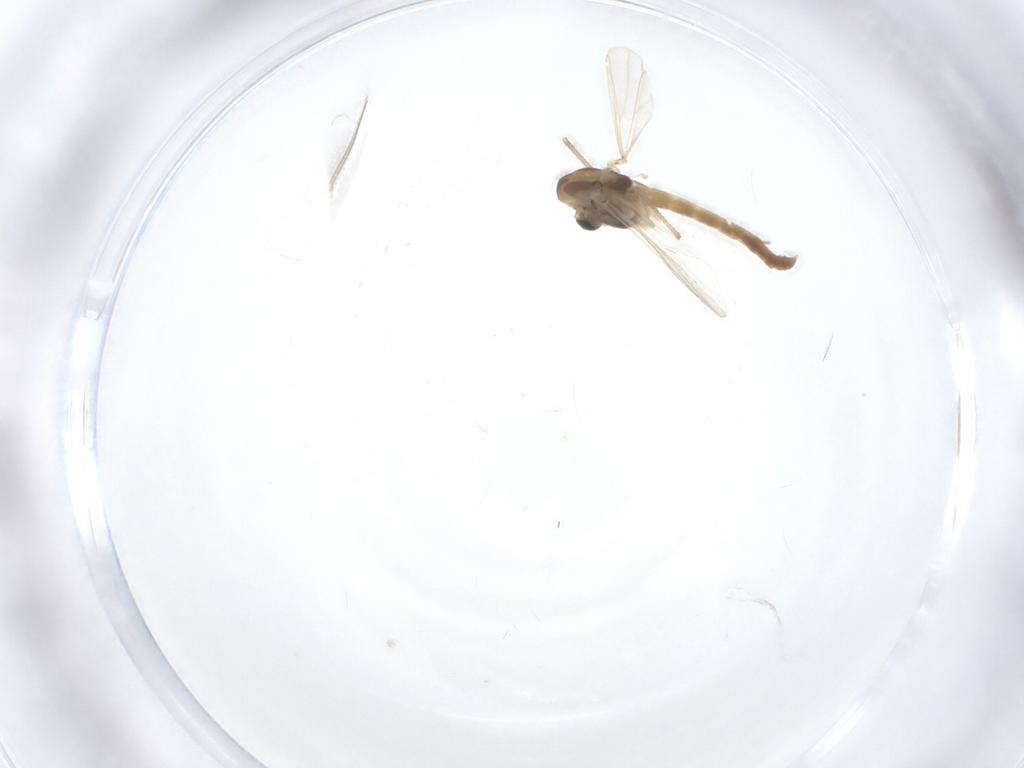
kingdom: Animalia
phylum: Arthropoda
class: Insecta
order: Diptera
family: Chironomidae
